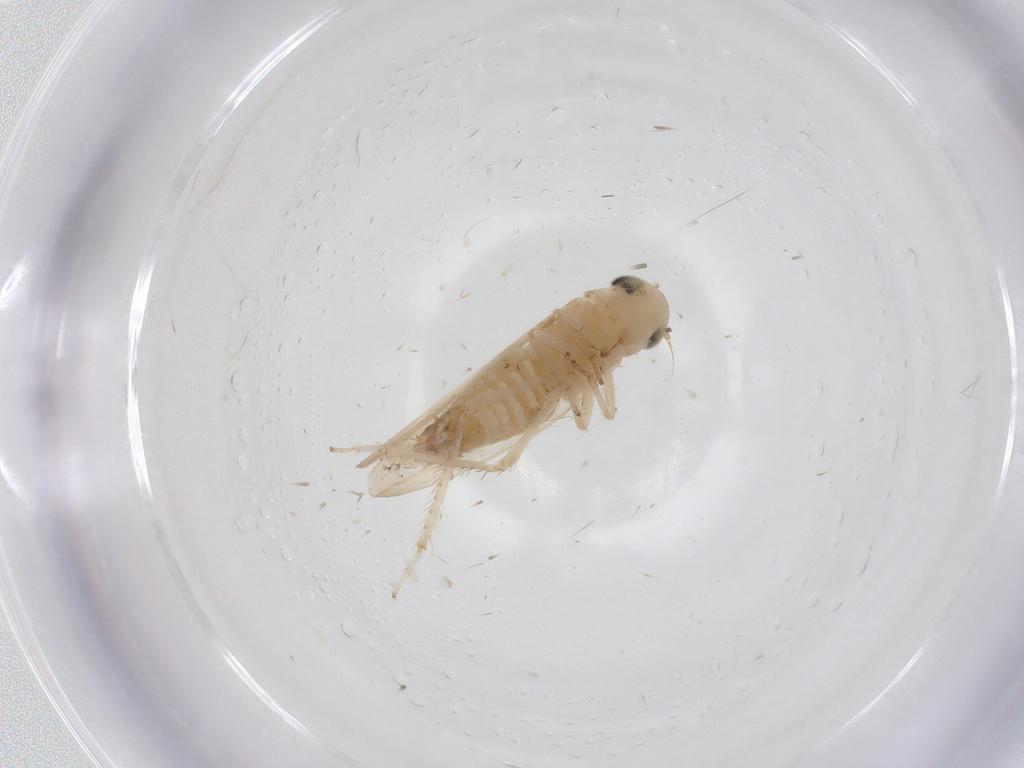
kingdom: Animalia
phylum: Arthropoda
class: Insecta
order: Hemiptera
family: Cicadellidae
